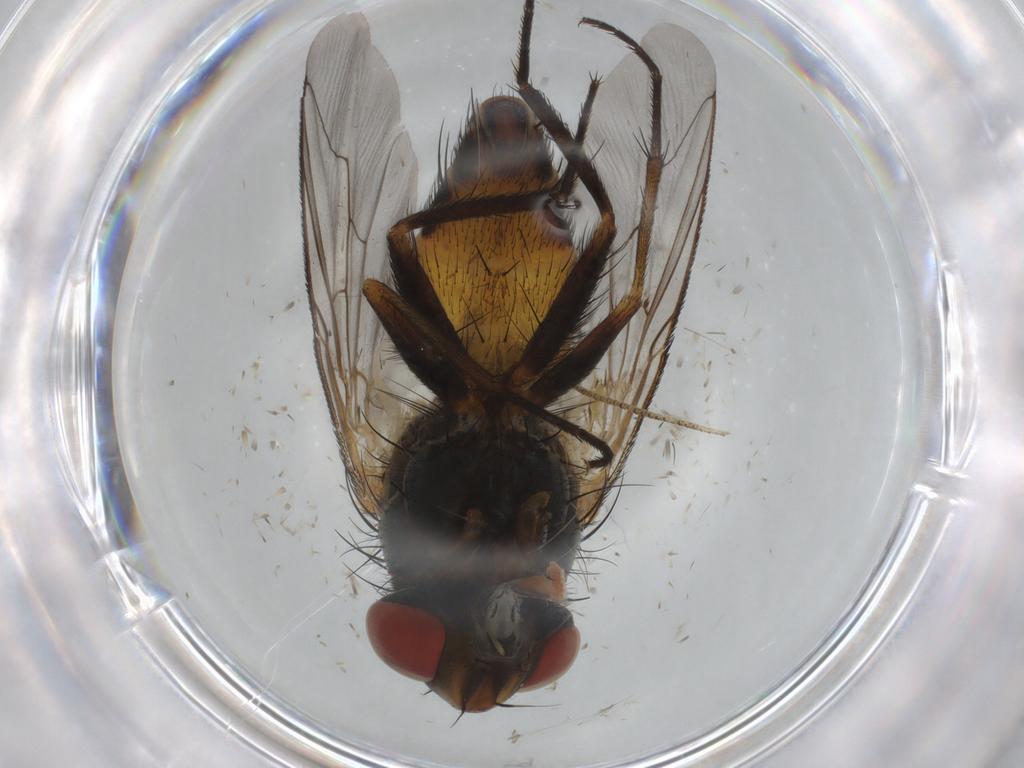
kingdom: Animalia
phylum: Arthropoda
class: Insecta
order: Diptera
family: Sarcophagidae
